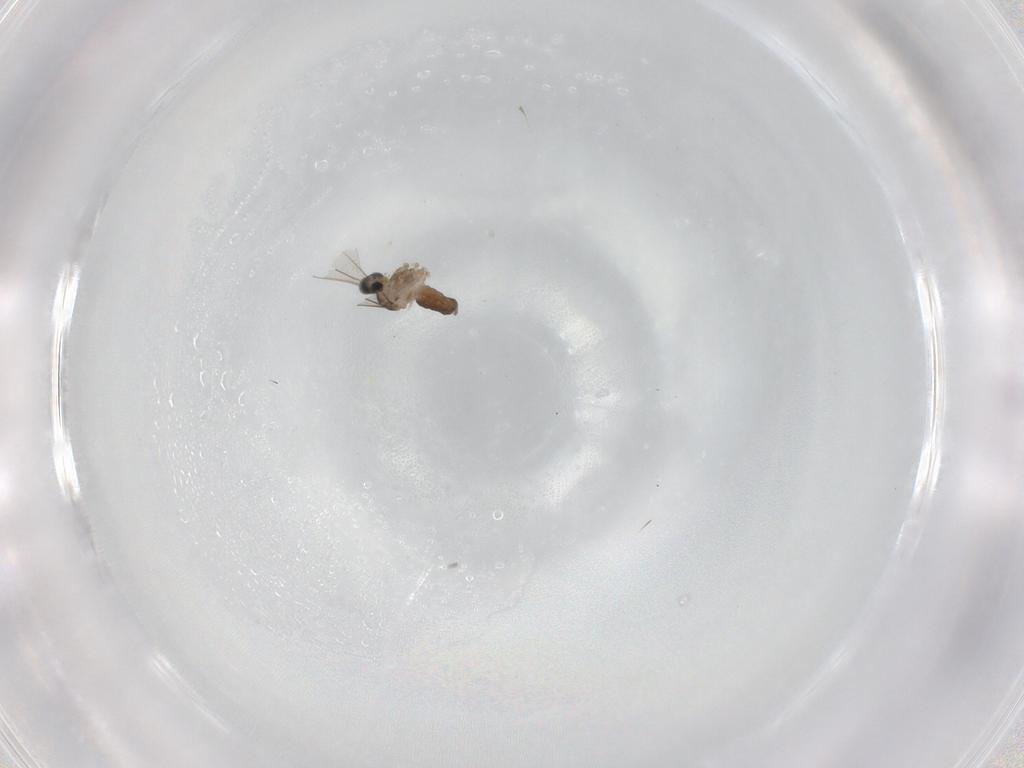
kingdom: Animalia
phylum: Arthropoda
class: Insecta
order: Diptera
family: Cecidomyiidae
